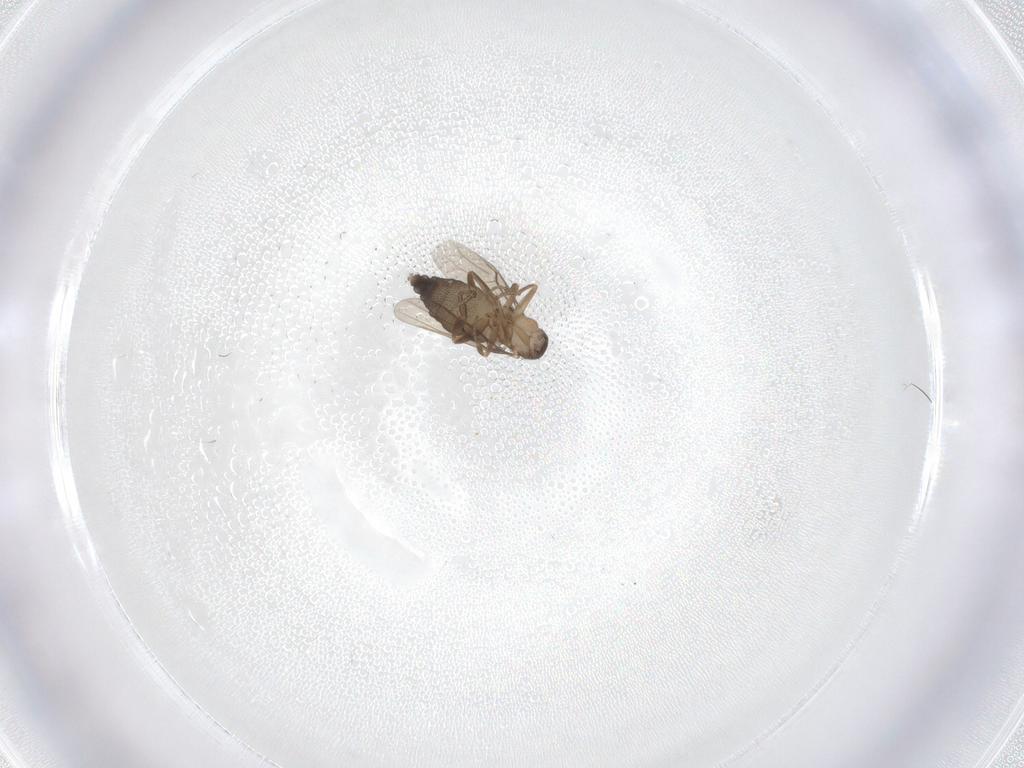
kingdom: Animalia
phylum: Arthropoda
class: Insecta
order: Diptera
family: Phoridae
